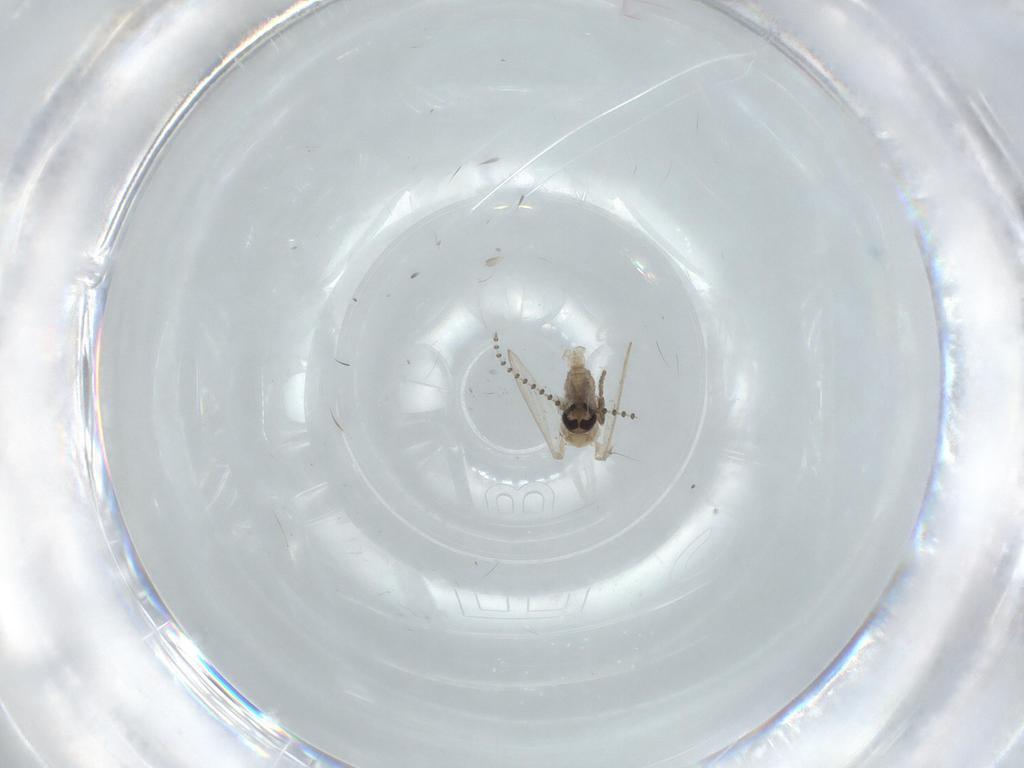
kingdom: Animalia
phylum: Arthropoda
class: Insecta
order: Diptera
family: Psychodidae
